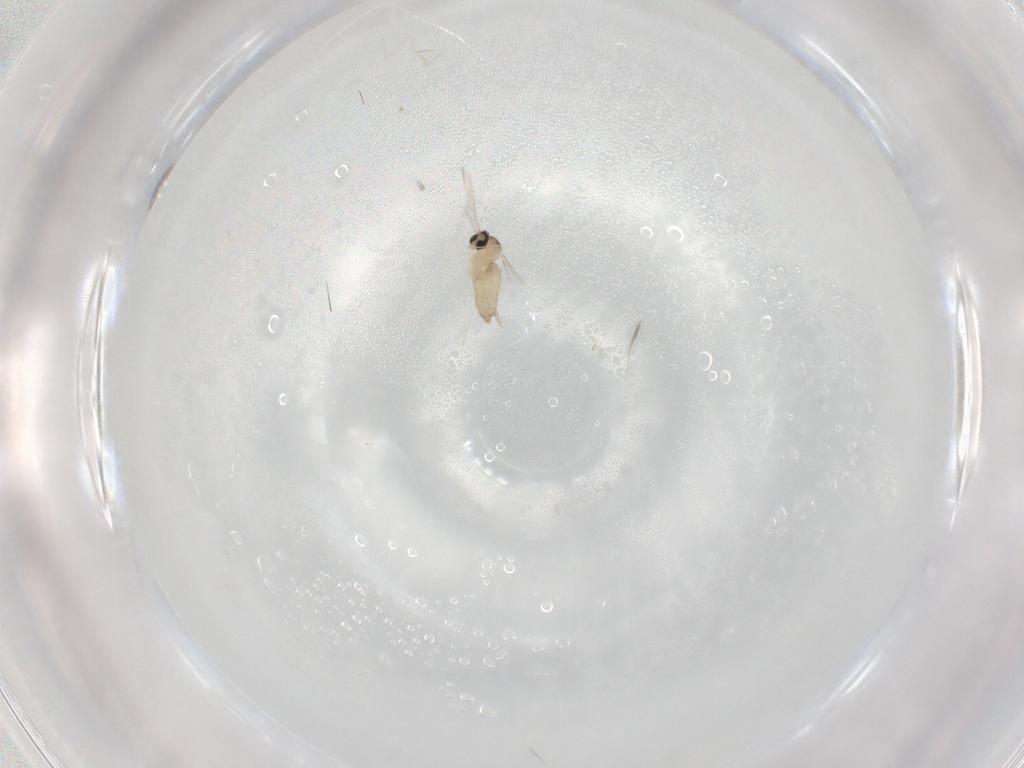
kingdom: Animalia
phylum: Arthropoda
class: Insecta
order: Diptera
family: Cecidomyiidae
